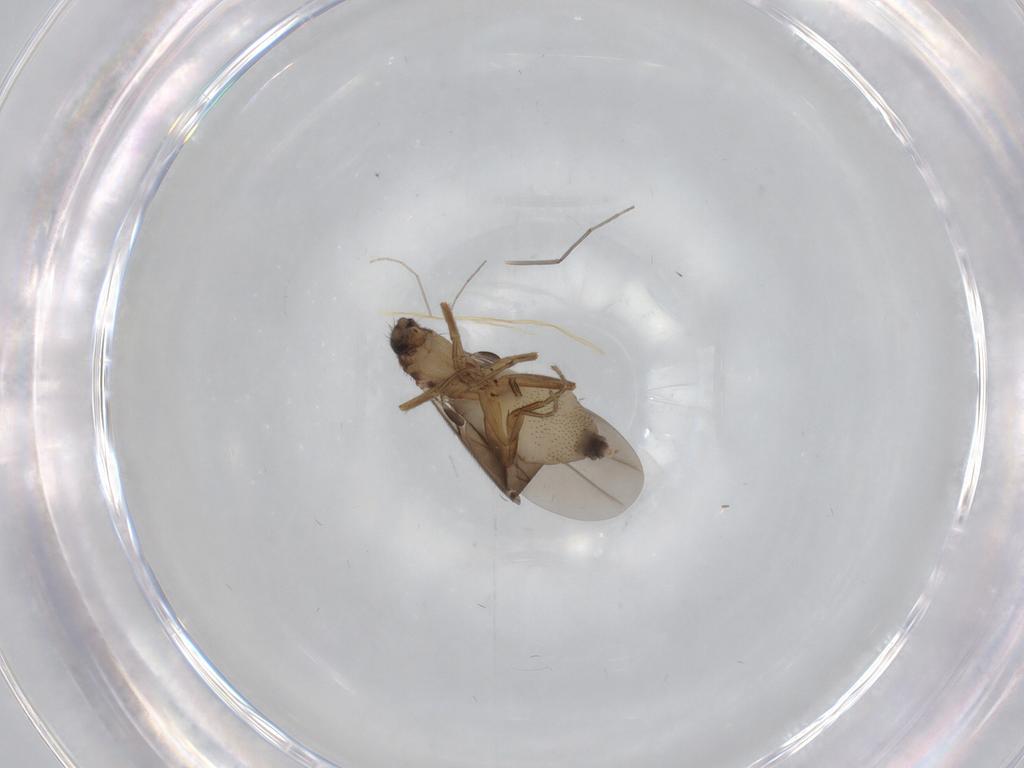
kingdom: Animalia
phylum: Arthropoda
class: Insecta
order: Diptera
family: Phoridae
